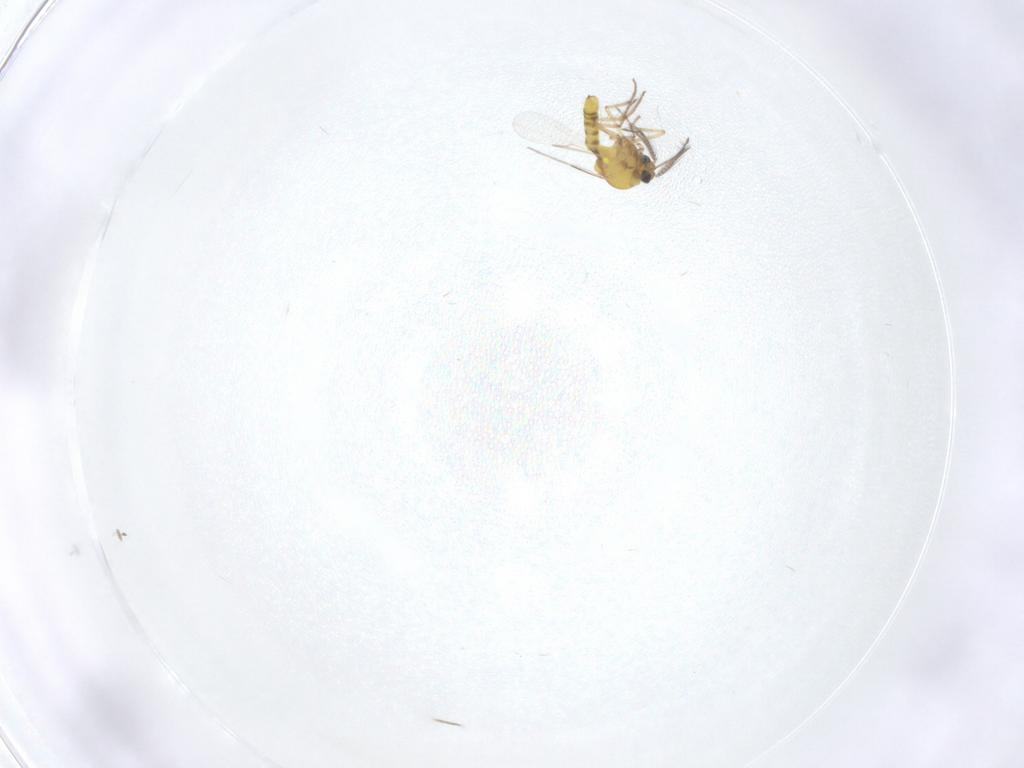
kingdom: Animalia
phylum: Arthropoda
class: Insecta
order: Diptera
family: Ceratopogonidae
